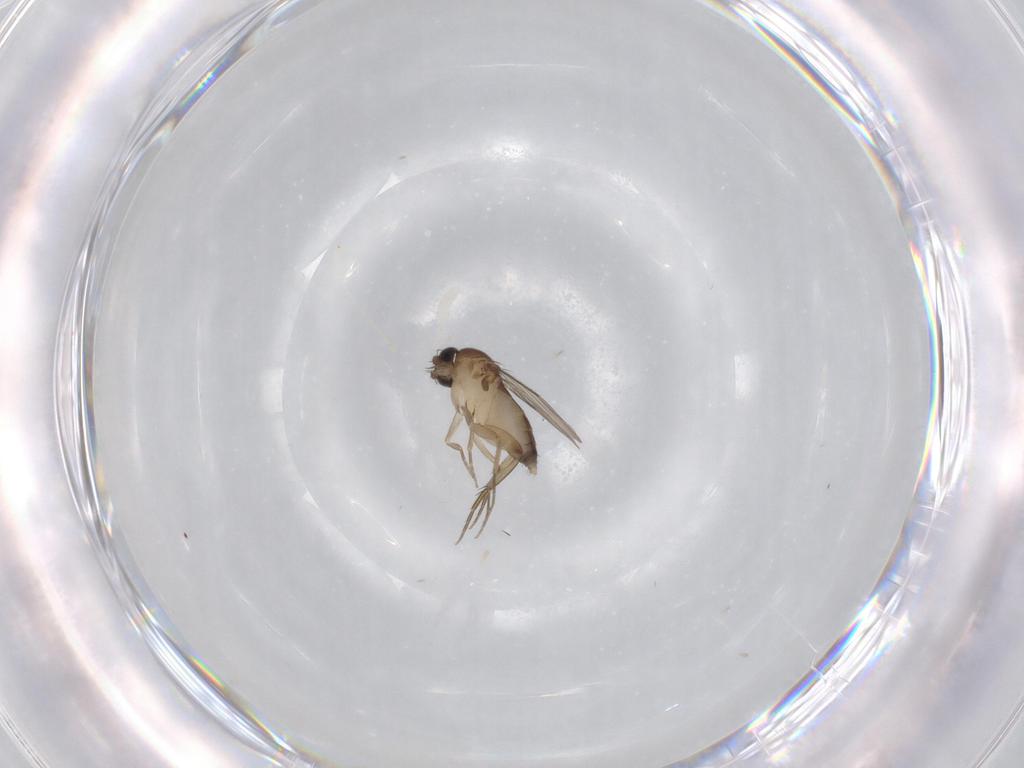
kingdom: Animalia
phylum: Arthropoda
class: Insecta
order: Diptera
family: Phoridae
